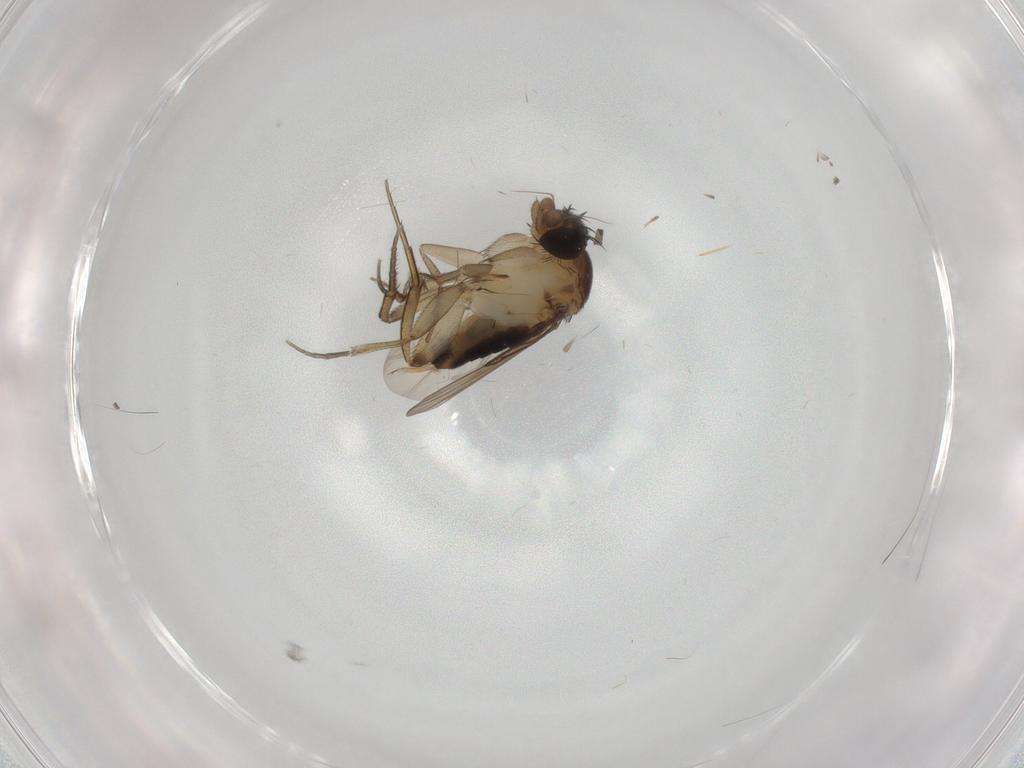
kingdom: Animalia
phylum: Arthropoda
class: Insecta
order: Diptera
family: Phoridae
